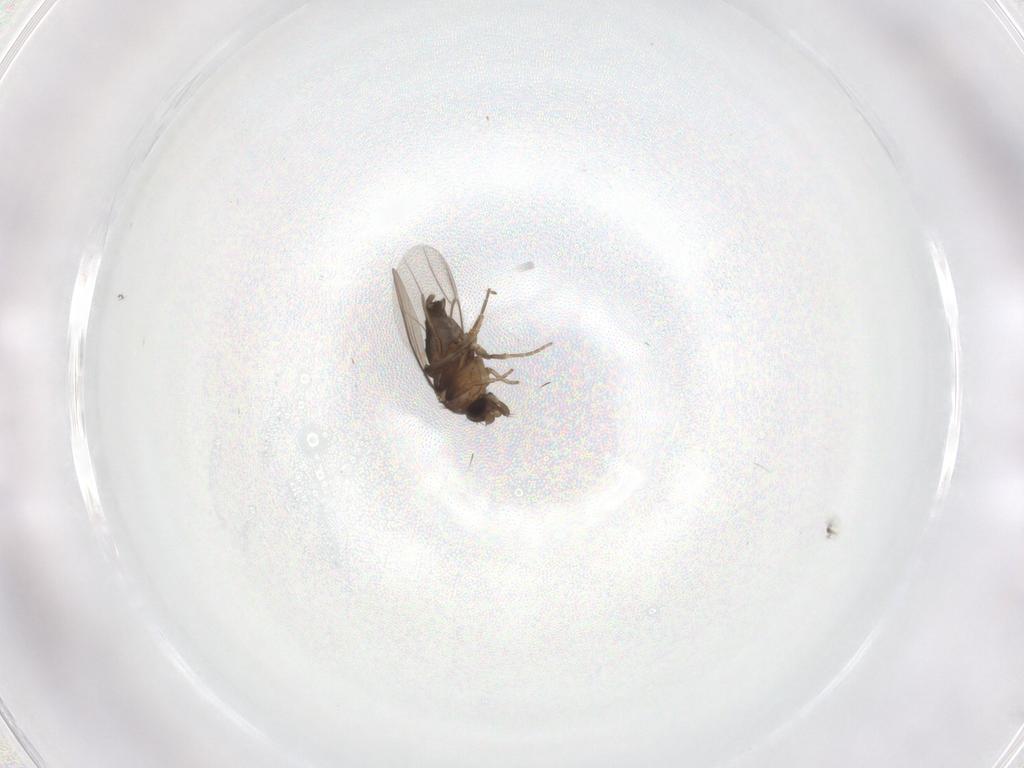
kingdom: Animalia
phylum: Arthropoda
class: Insecta
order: Diptera
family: Phoridae
